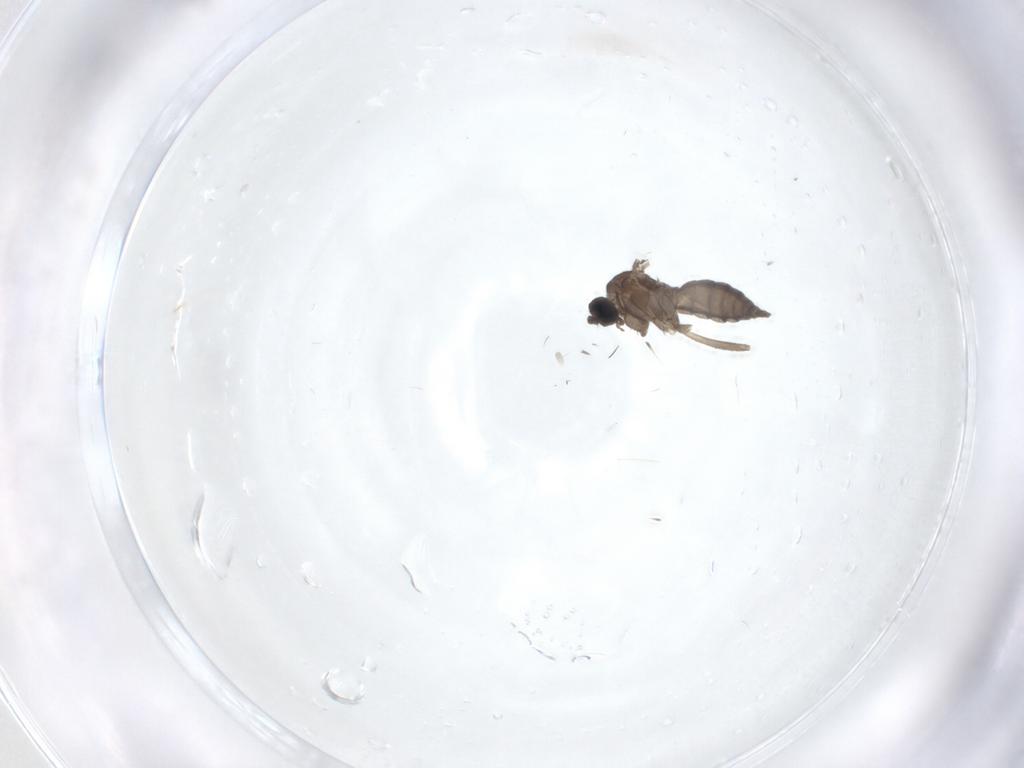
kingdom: Animalia
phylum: Arthropoda
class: Insecta
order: Diptera
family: Sciaridae
